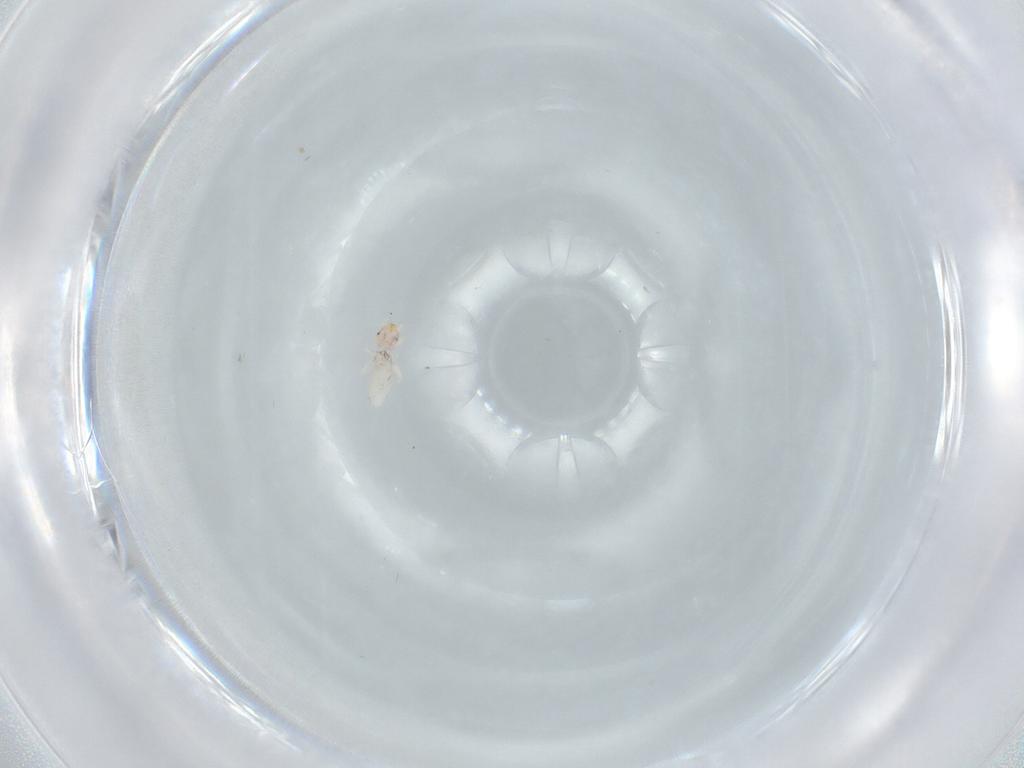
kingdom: Animalia
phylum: Arthropoda
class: Insecta
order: Psocodea
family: Liposcelididae
